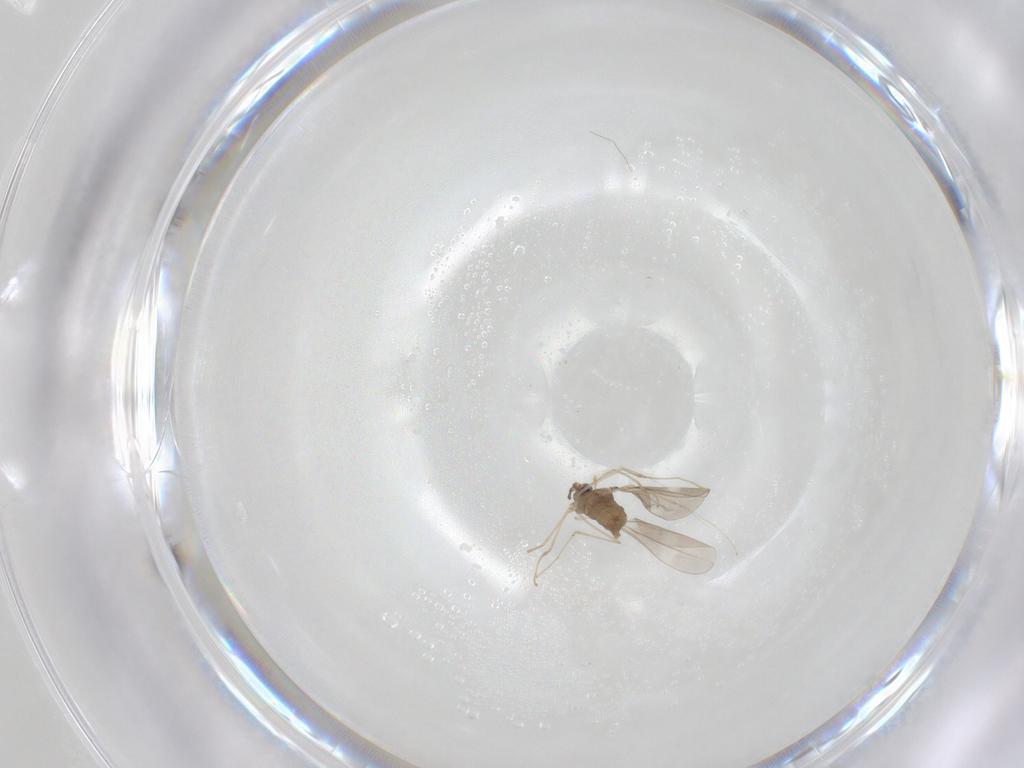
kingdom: Animalia
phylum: Arthropoda
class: Insecta
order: Diptera
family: Cecidomyiidae
